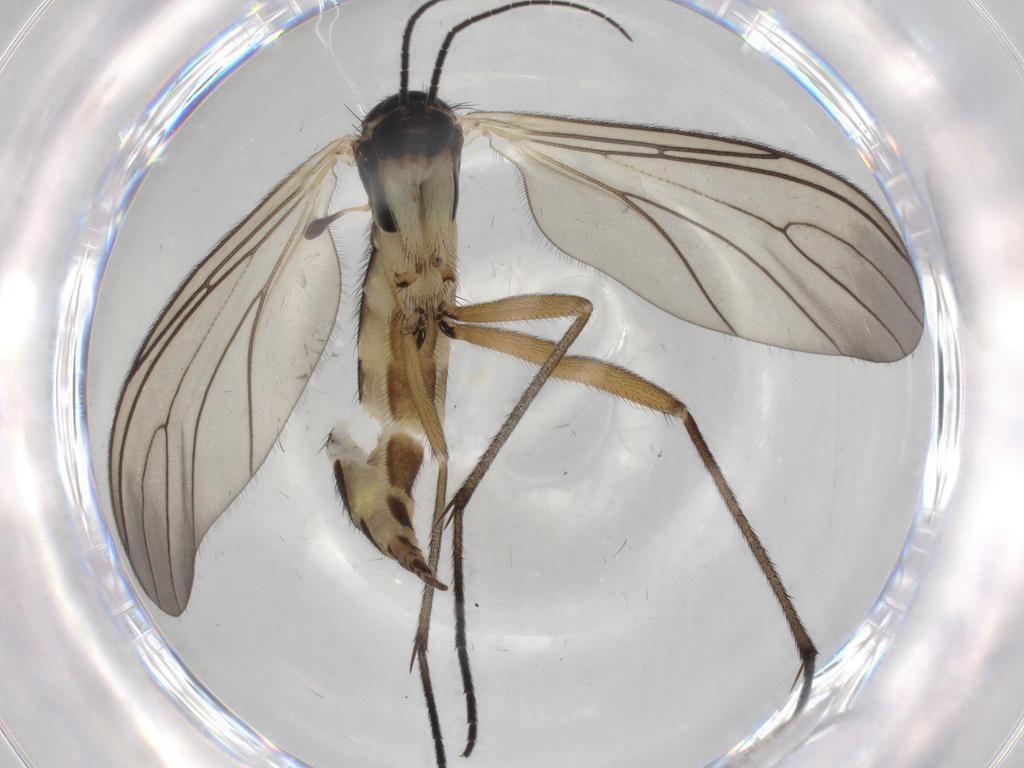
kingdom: Animalia
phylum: Arthropoda
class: Insecta
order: Diptera
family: Sciaridae
